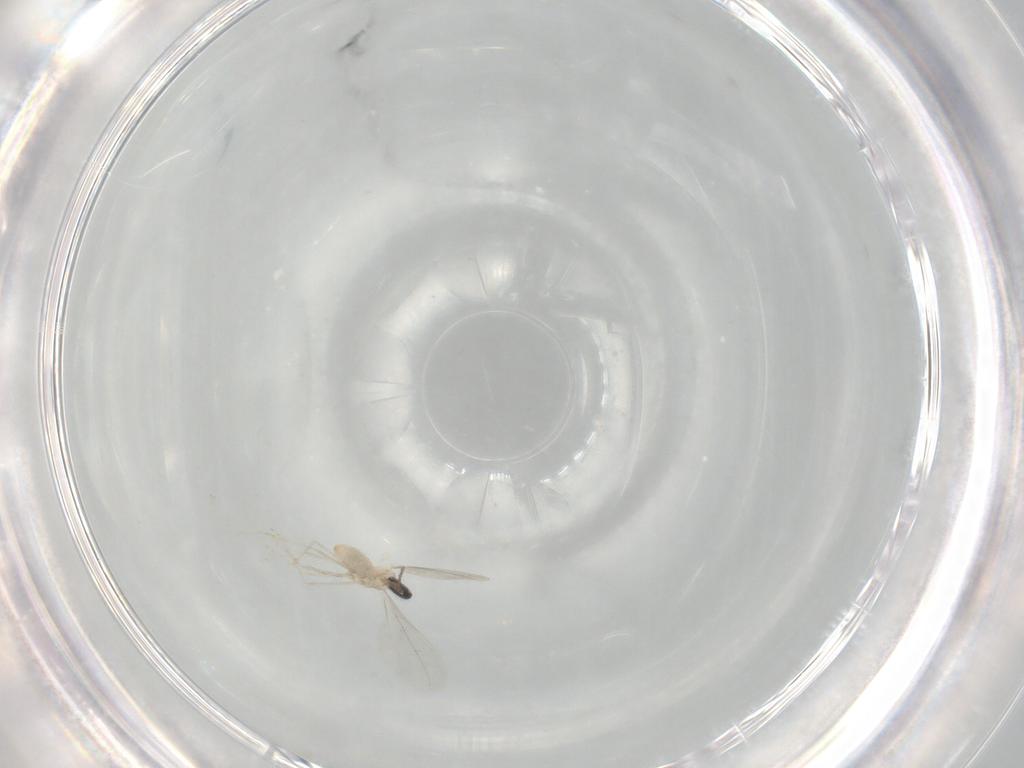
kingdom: Animalia
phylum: Arthropoda
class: Insecta
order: Diptera
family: Cecidomyiidae
